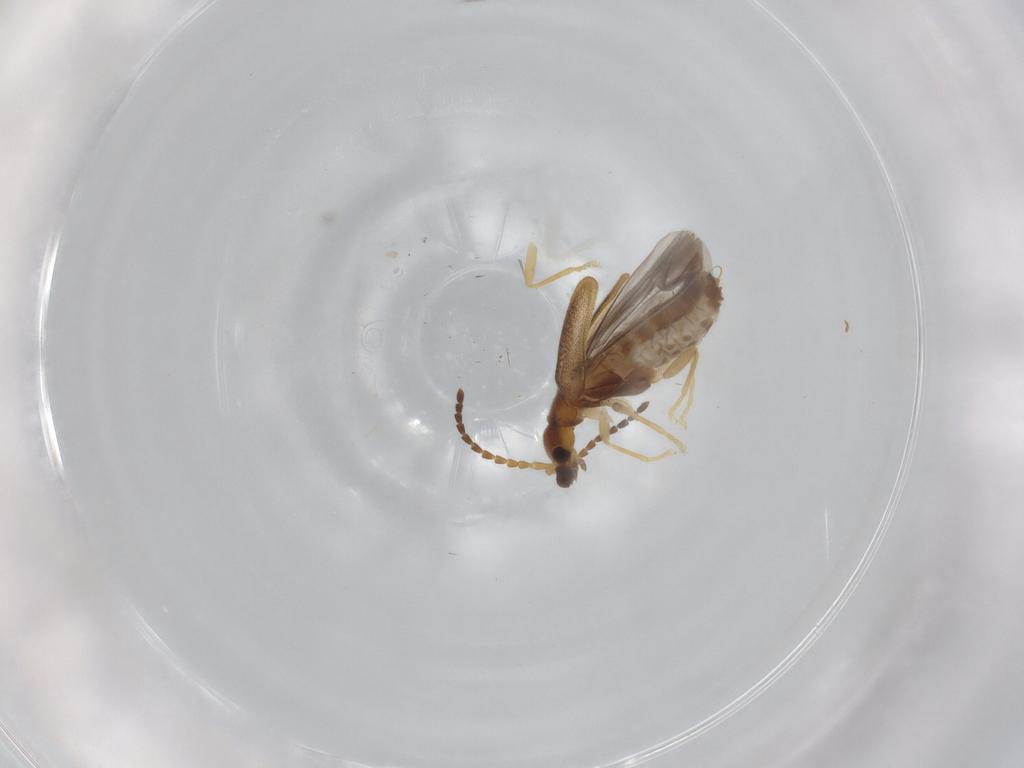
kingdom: Animalia
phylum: Arthropoda
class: Insecta
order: Coleoptera
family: Cantharidae
